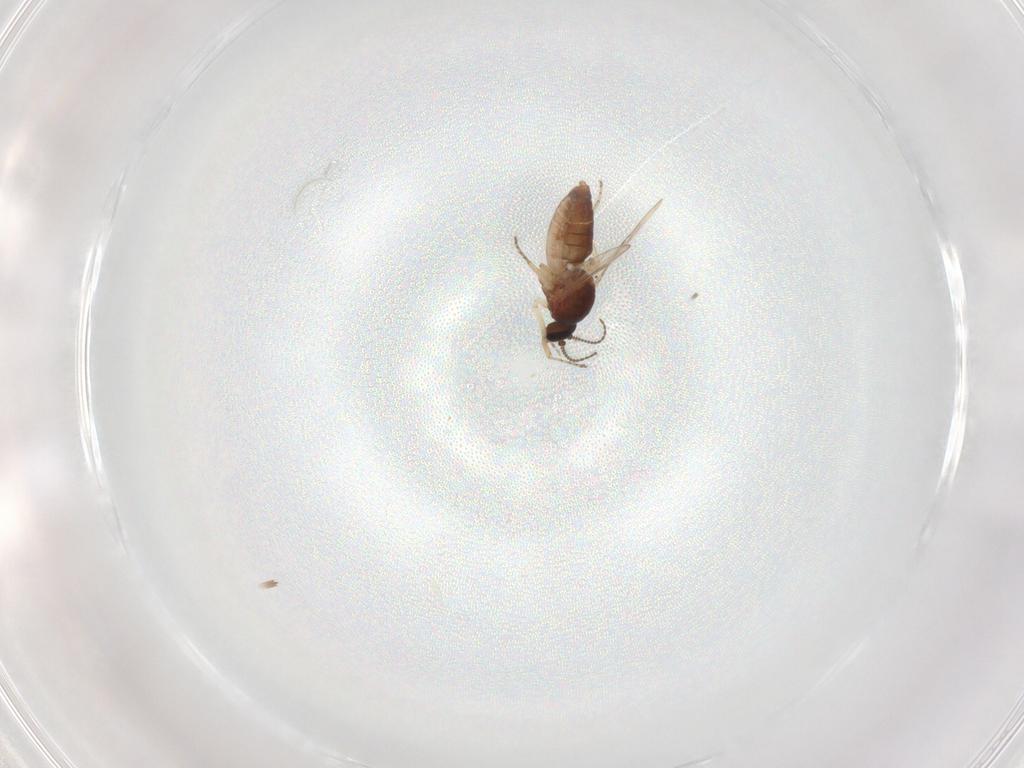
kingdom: Animalia
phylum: Arthropoda
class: Insecta
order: Diptera
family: Ceratopogonidae
